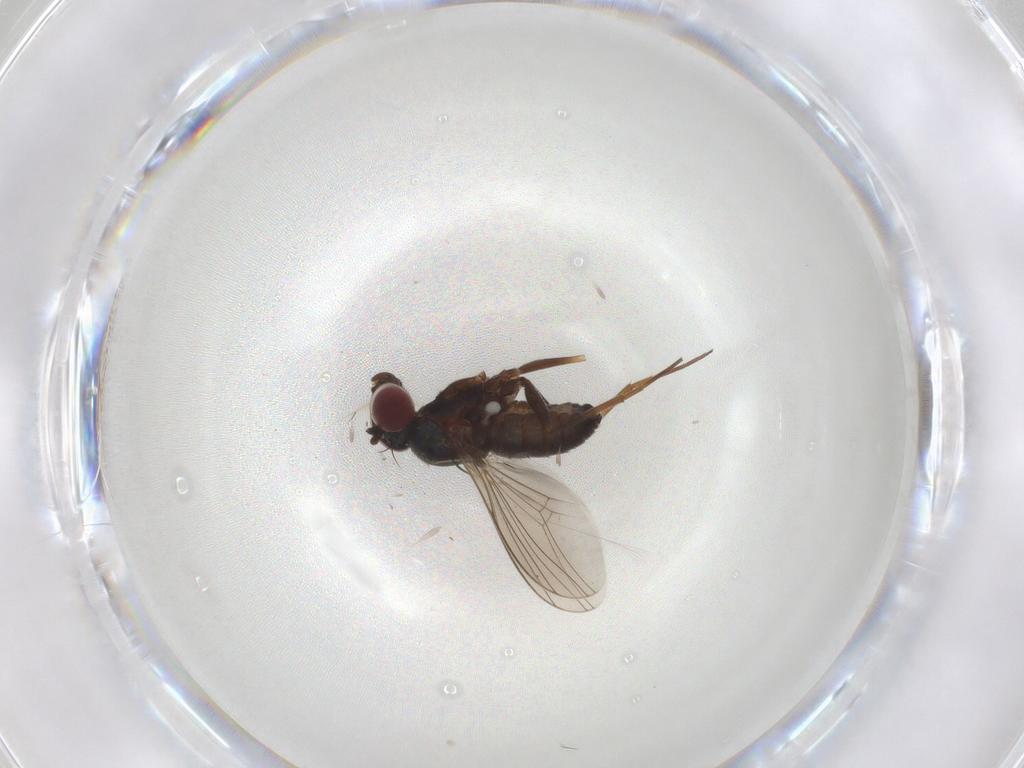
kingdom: Animalia
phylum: Arthropoda
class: Insecta
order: Diptera
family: Dolichopodidae
